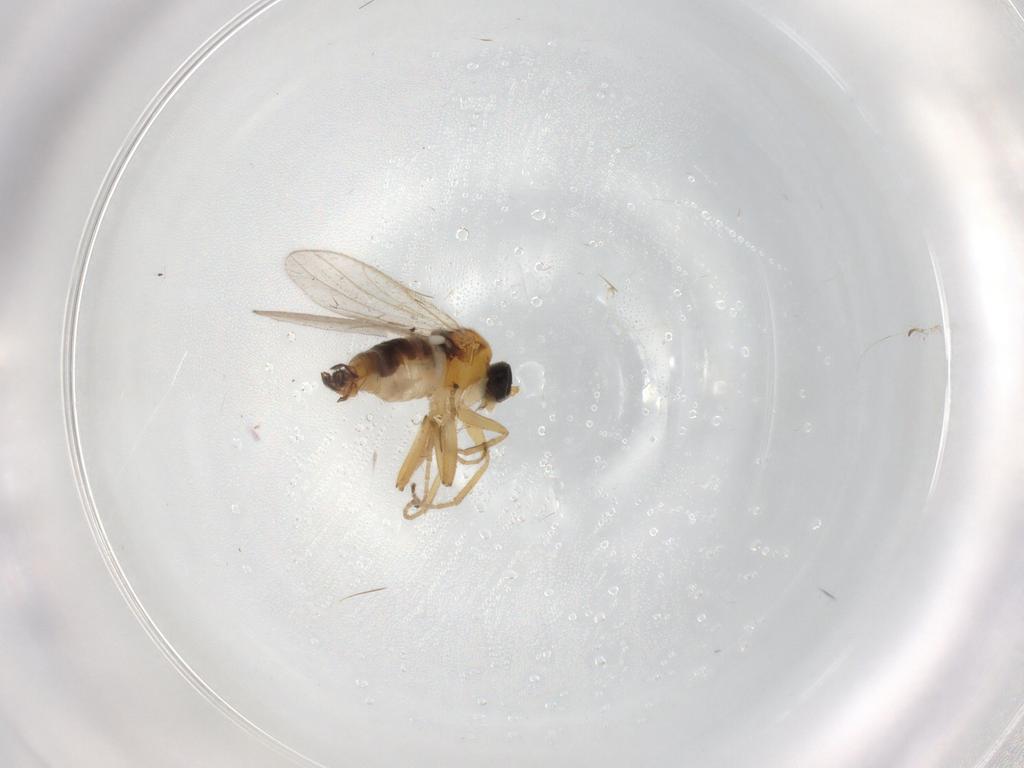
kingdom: Animalia
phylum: Arthropoda
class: Insecta
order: Diptera
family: Hybotidae
